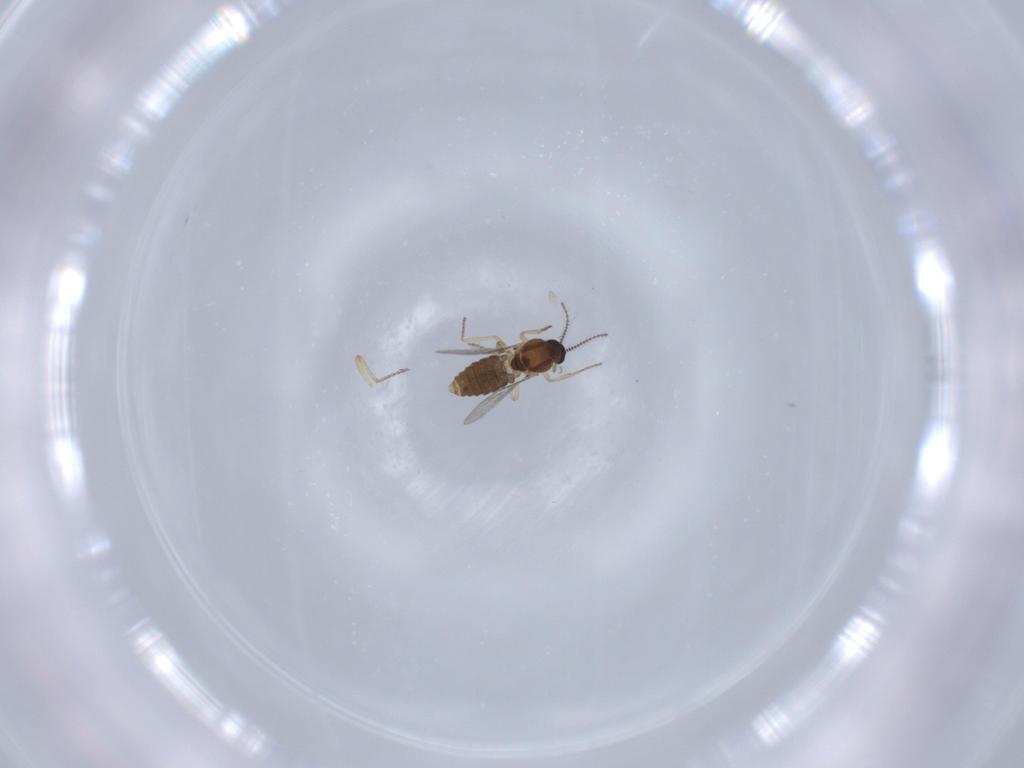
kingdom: Animalia
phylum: Arthropoda
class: Insecta
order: Diptera
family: Ceratopogonidae
